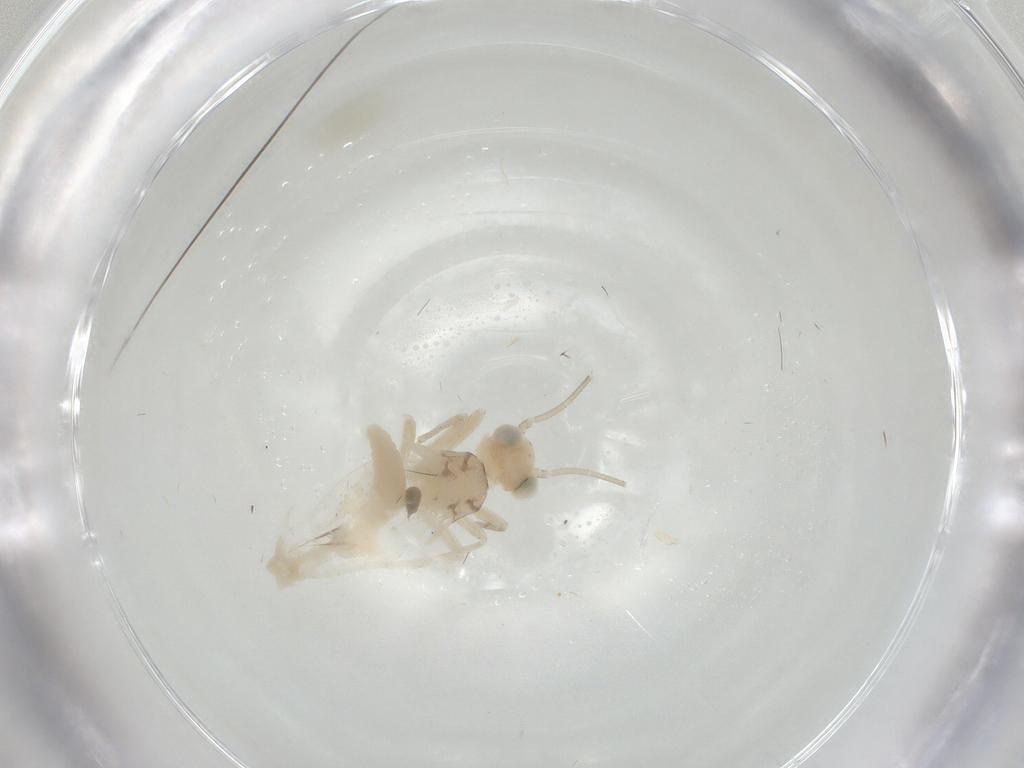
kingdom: Animalia
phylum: Arthropoda
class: Insecta
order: Psocodea
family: Caeciliusidae
